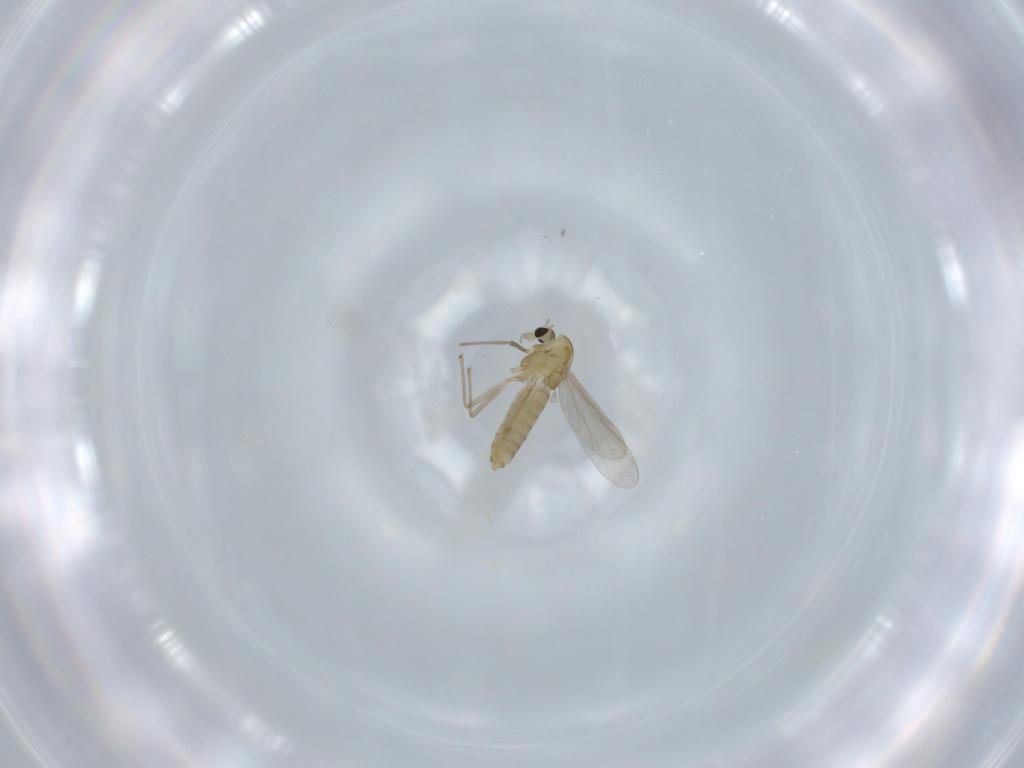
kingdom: Animalia
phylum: Arthropoda
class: Insecta
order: Diptera
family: Chironomidae
